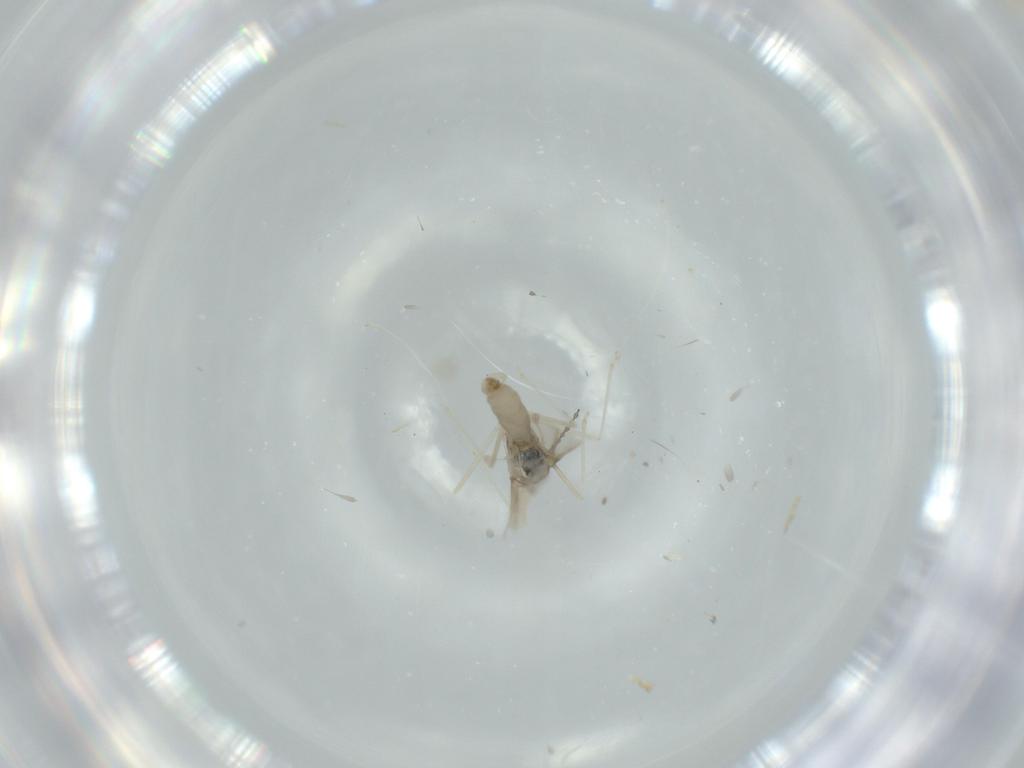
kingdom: Animalia
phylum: Arthropoda
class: Insecta
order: Diptera
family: Cecidomyiidae
